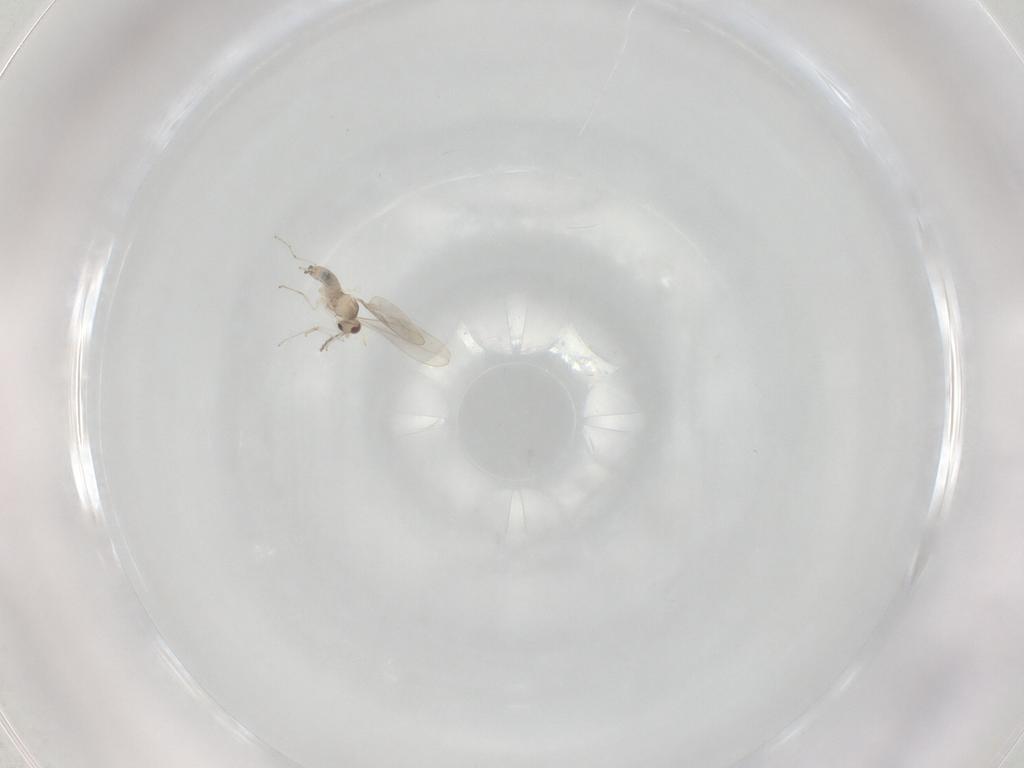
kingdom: Animalia
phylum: Arthropoda
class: Insecta
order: Diptera
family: Cecidomyiidae
